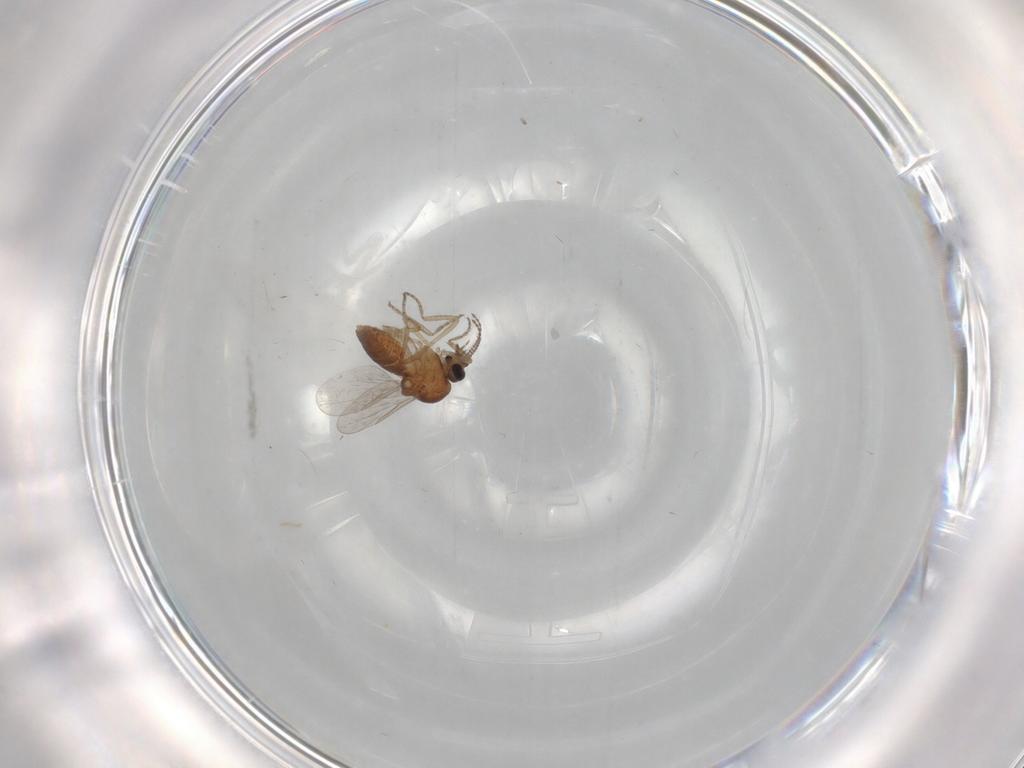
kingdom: Animalia
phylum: Arthropoda
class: Insecta
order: Diptera
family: Ceratopogonidae
